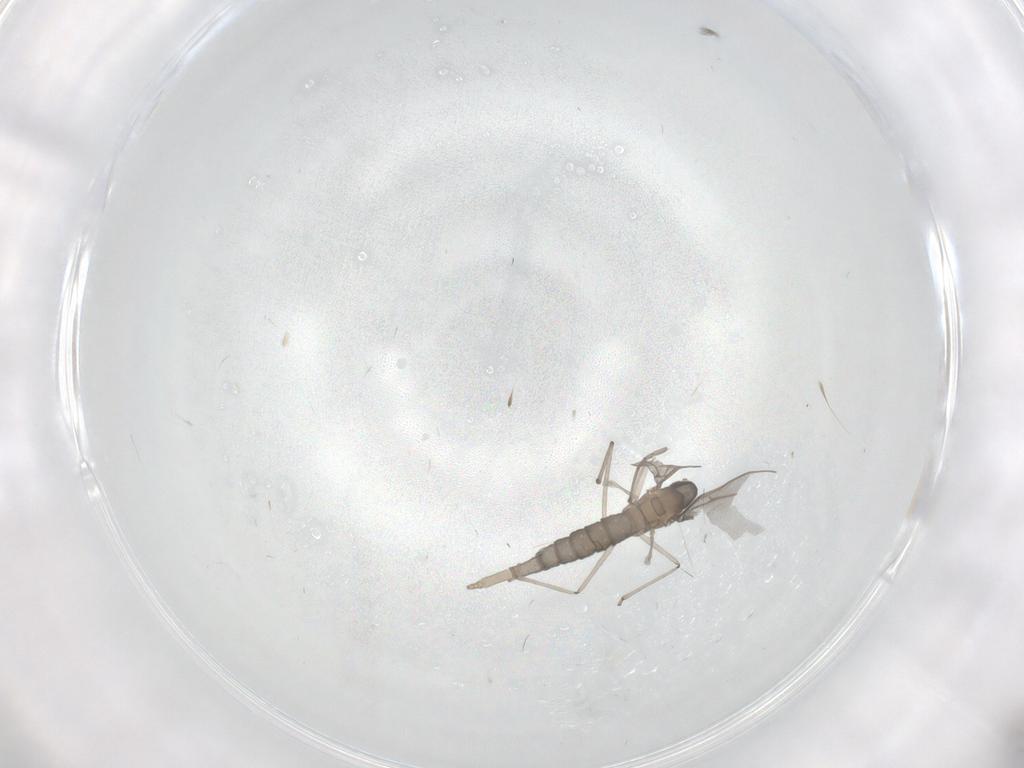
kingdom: Animalia
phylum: Arthropoda
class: Insecta
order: Diptera
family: Cecidomyiidae
